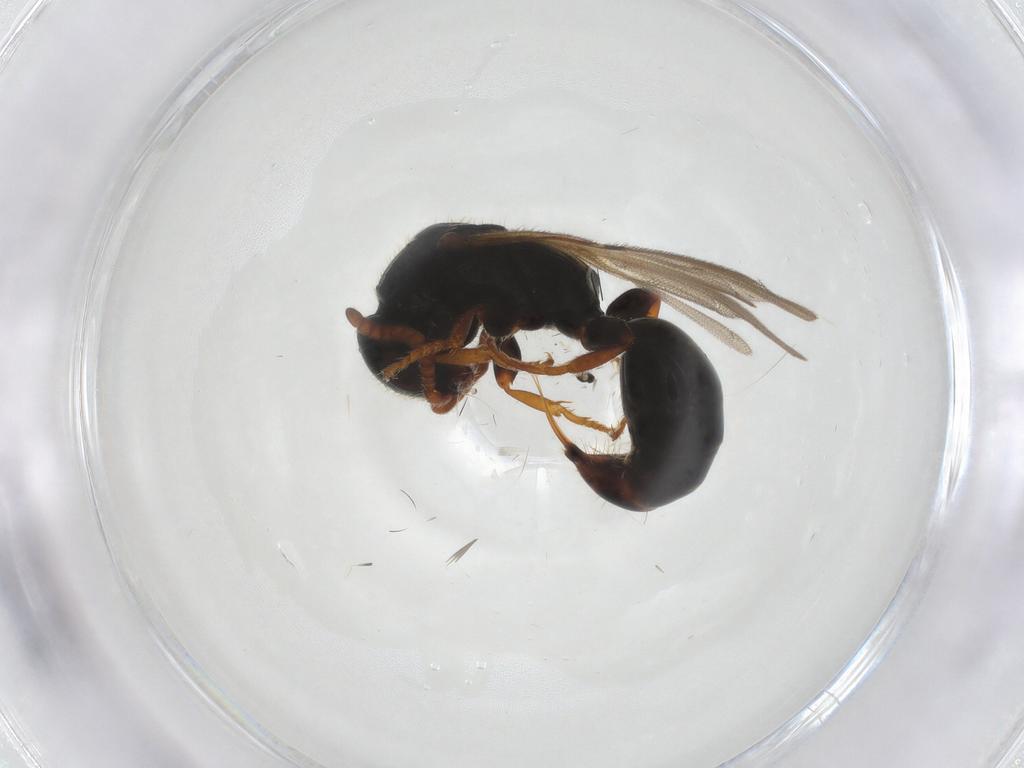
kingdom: Animalia
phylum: Arthropoda
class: Insecta
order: Hymenoptera
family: Bethylidae
